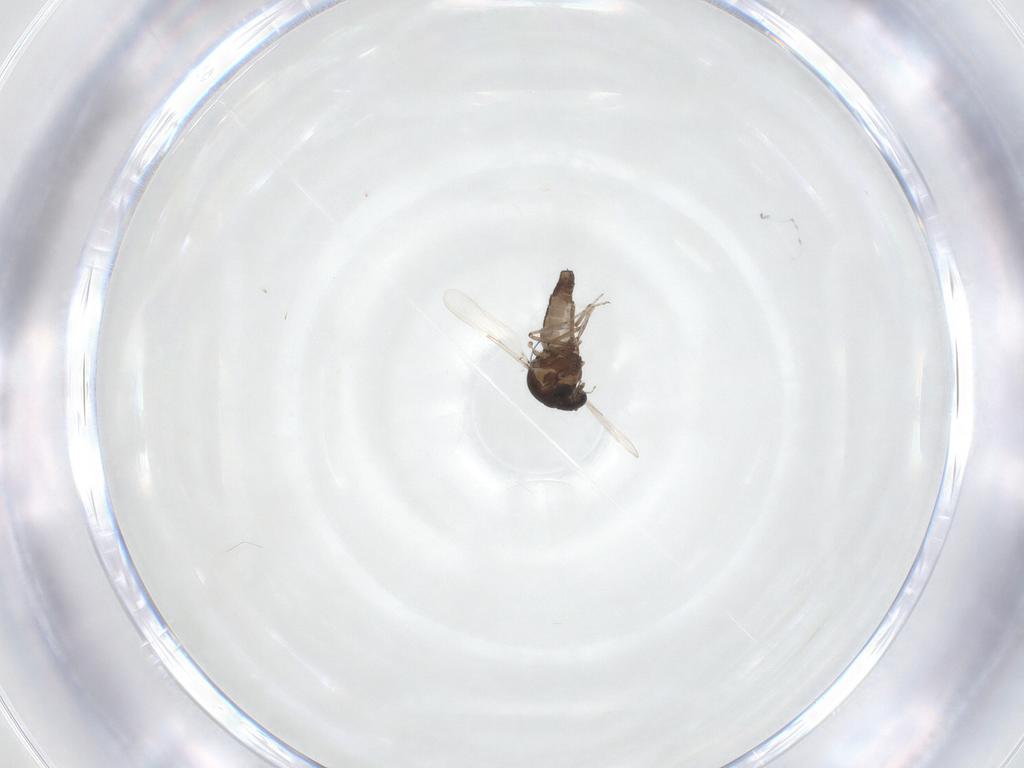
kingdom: Animalia
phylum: Arthropoda
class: Insecta
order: Diptera
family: Ceratopogonidae
